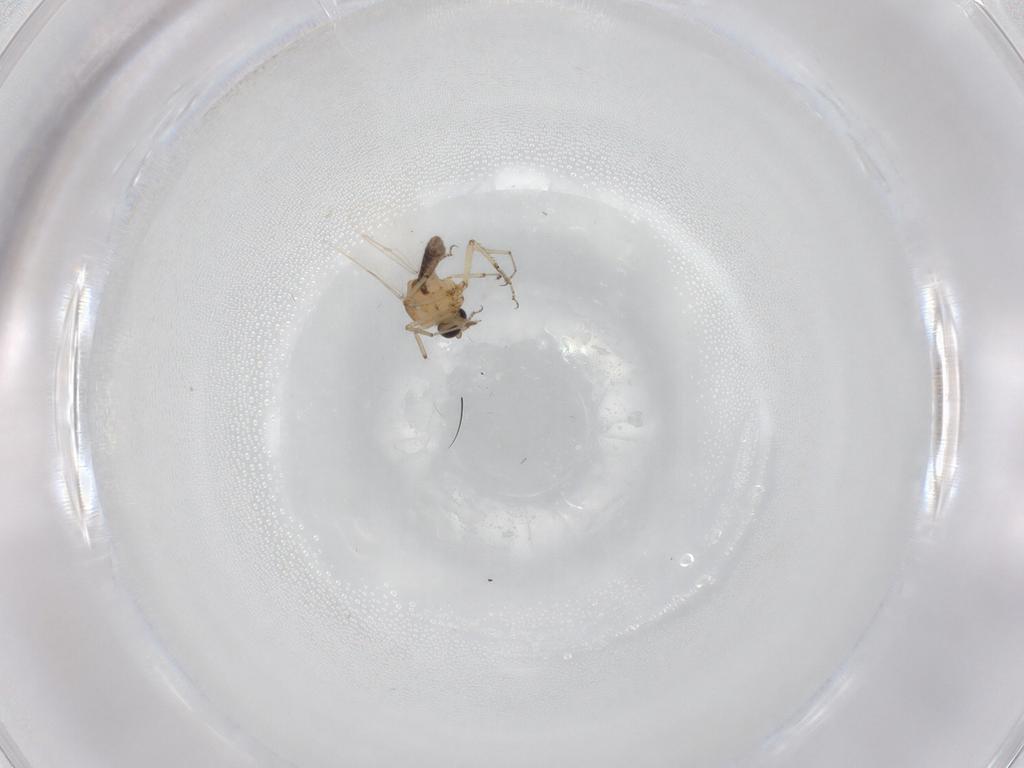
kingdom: Animalia
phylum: Arthropoda
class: Insecta
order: Diptera
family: Ceratopogonidae
